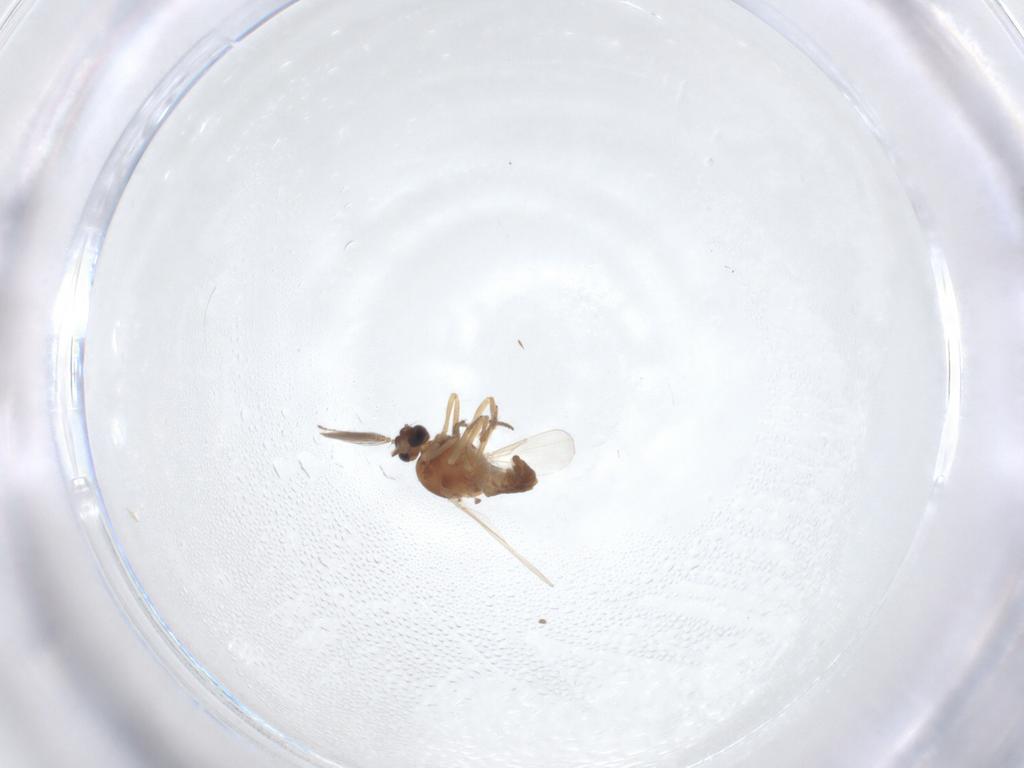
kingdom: Animalia
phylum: Arthropoda
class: Insecta
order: Diptera
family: Ceratopogonidae
